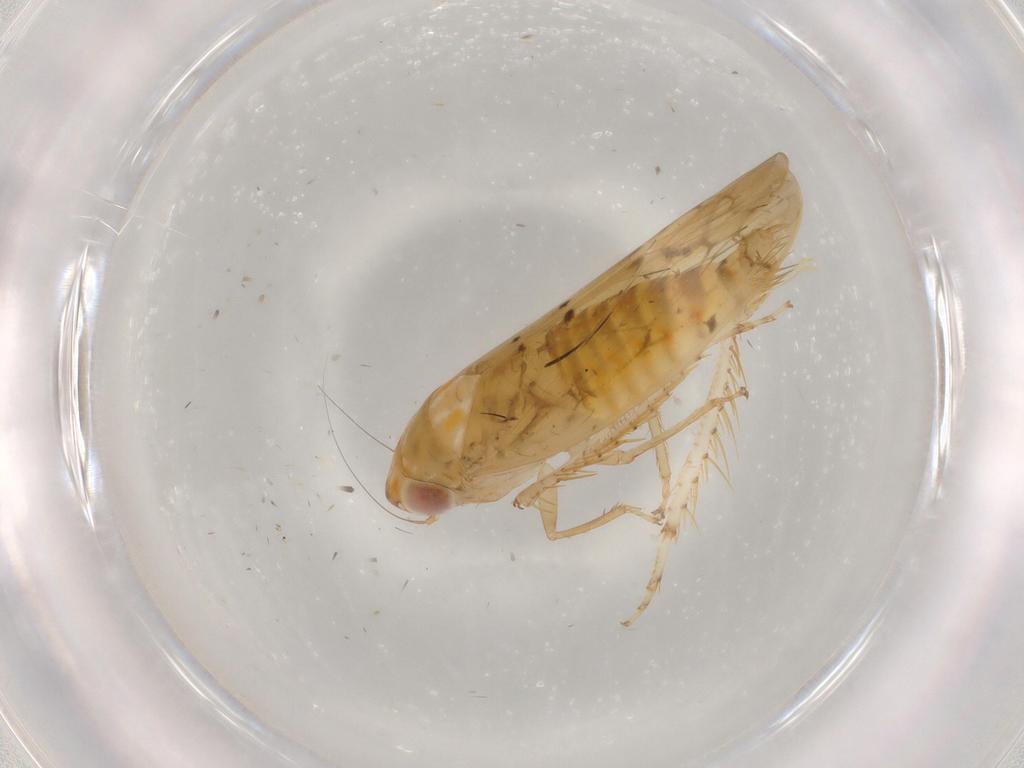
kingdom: Animalia
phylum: Arthropoda
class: Insecta
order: Hemiptera
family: Cicadellidae
